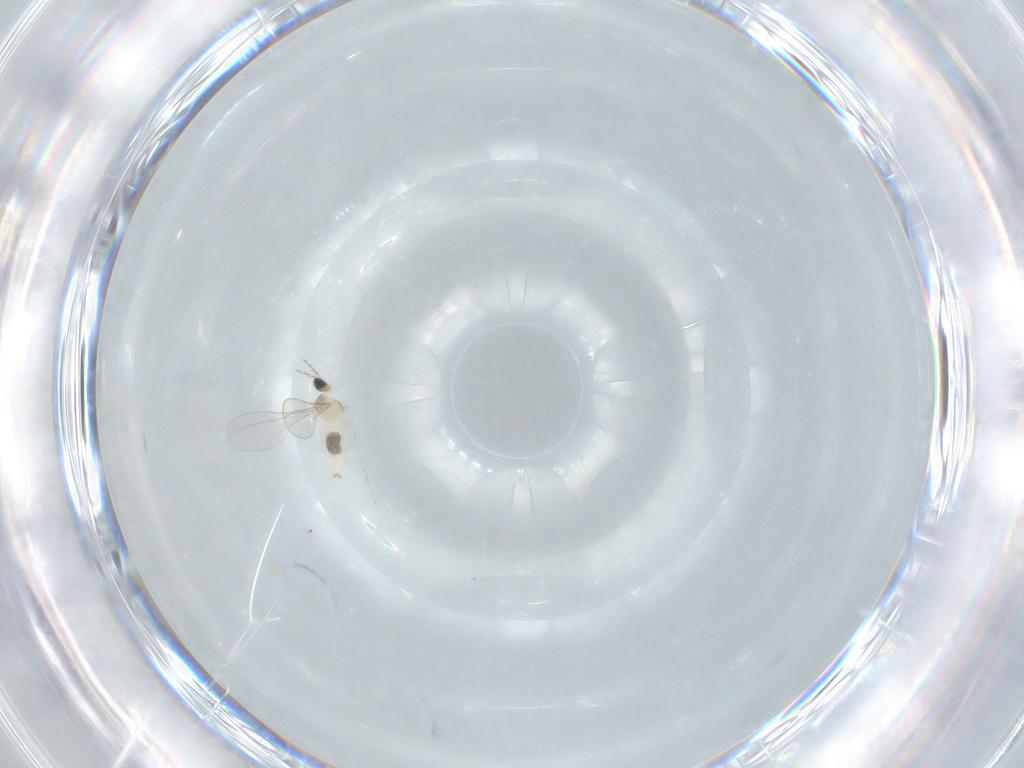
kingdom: Animalia
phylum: Arthropoda
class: Insecta
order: Diptera
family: Cecidomyiidae
